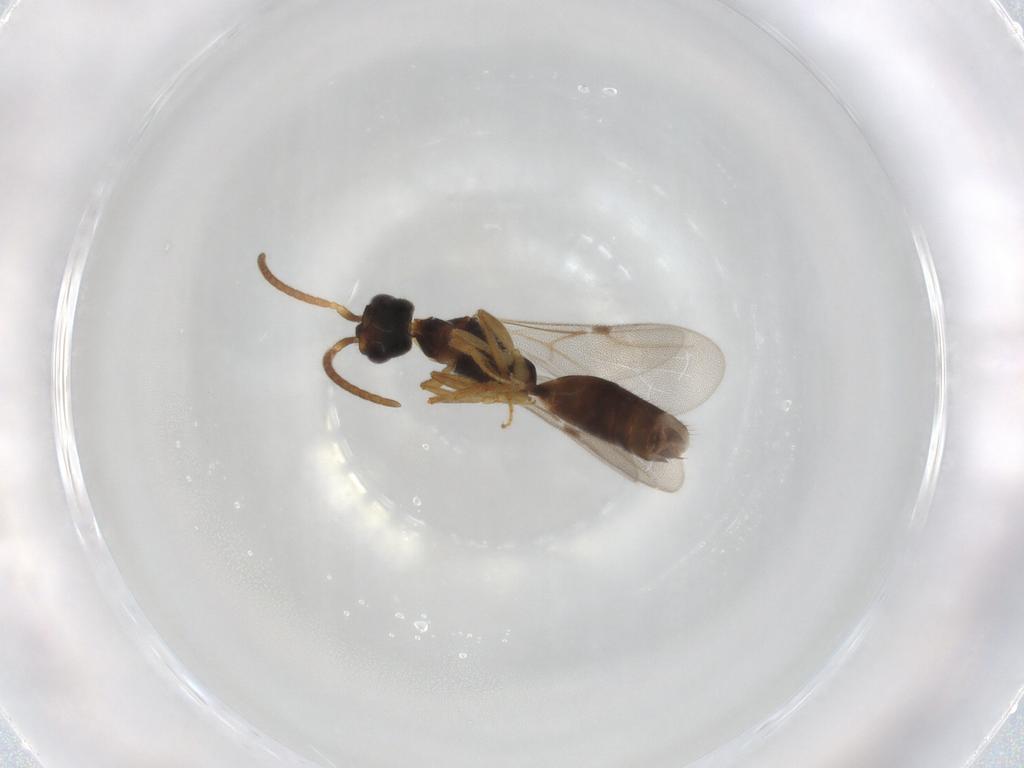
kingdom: Animalia
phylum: Arthropoda
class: Insecta
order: Hymenoptera
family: Bethylidae
